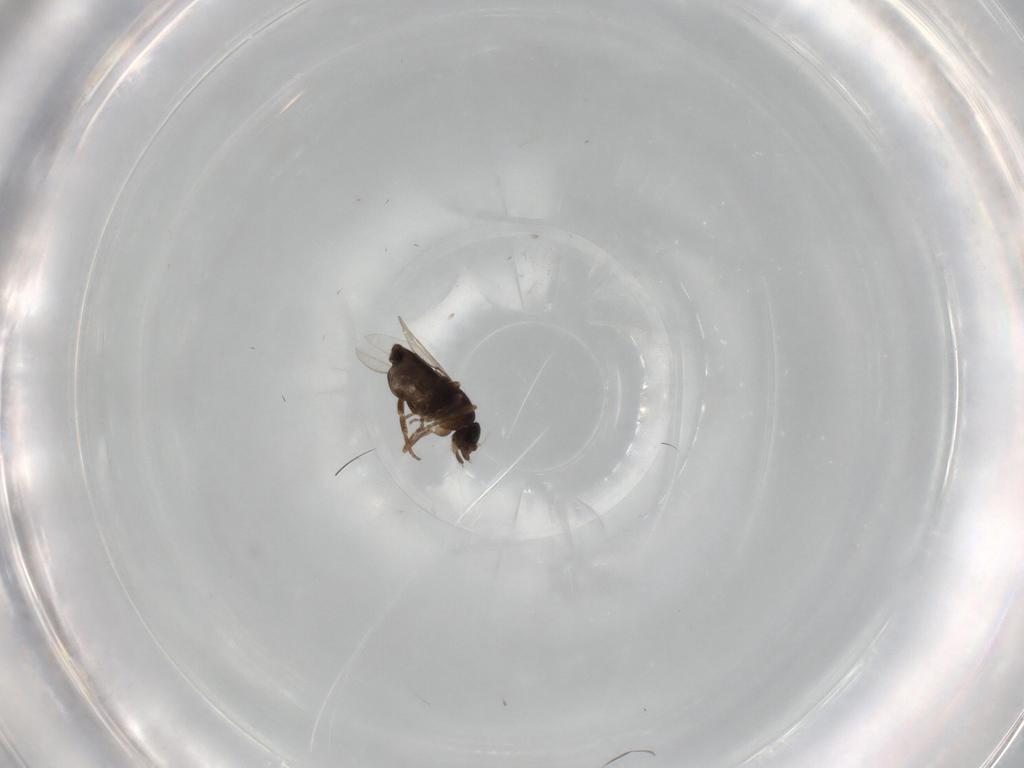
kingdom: Animalia
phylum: Arthropoda
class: Insecta
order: Diptera
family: Phoridae
